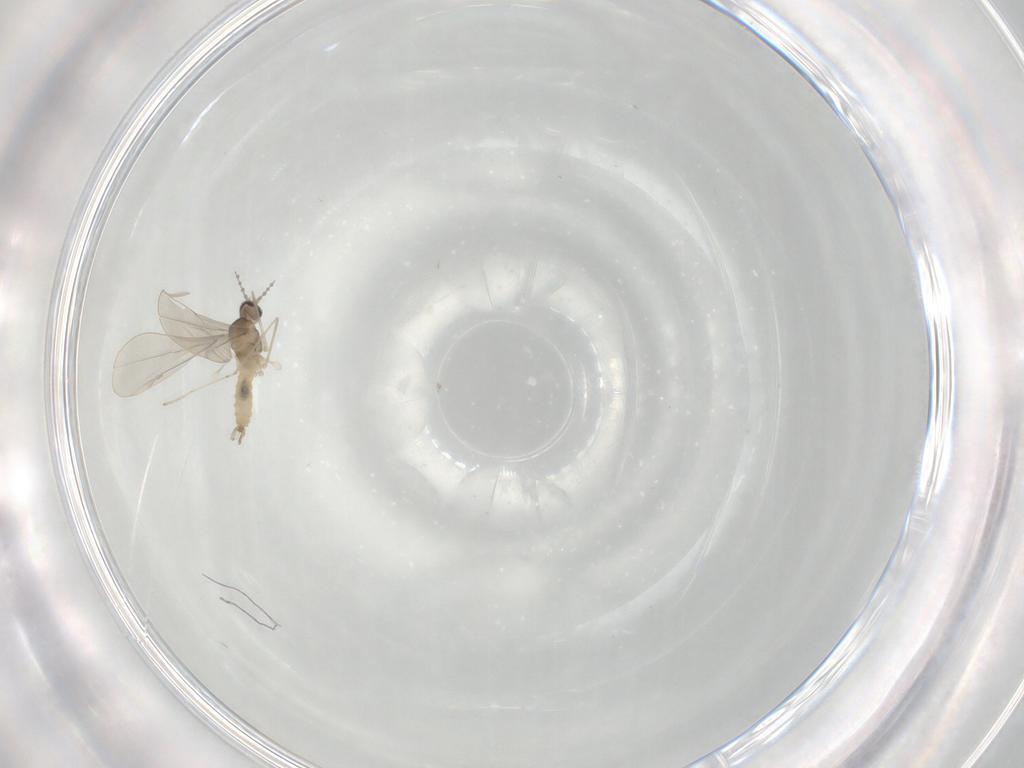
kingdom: Animalia
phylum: Arthropoda
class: Insecta
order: Diptera
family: Cecidomyiidae
